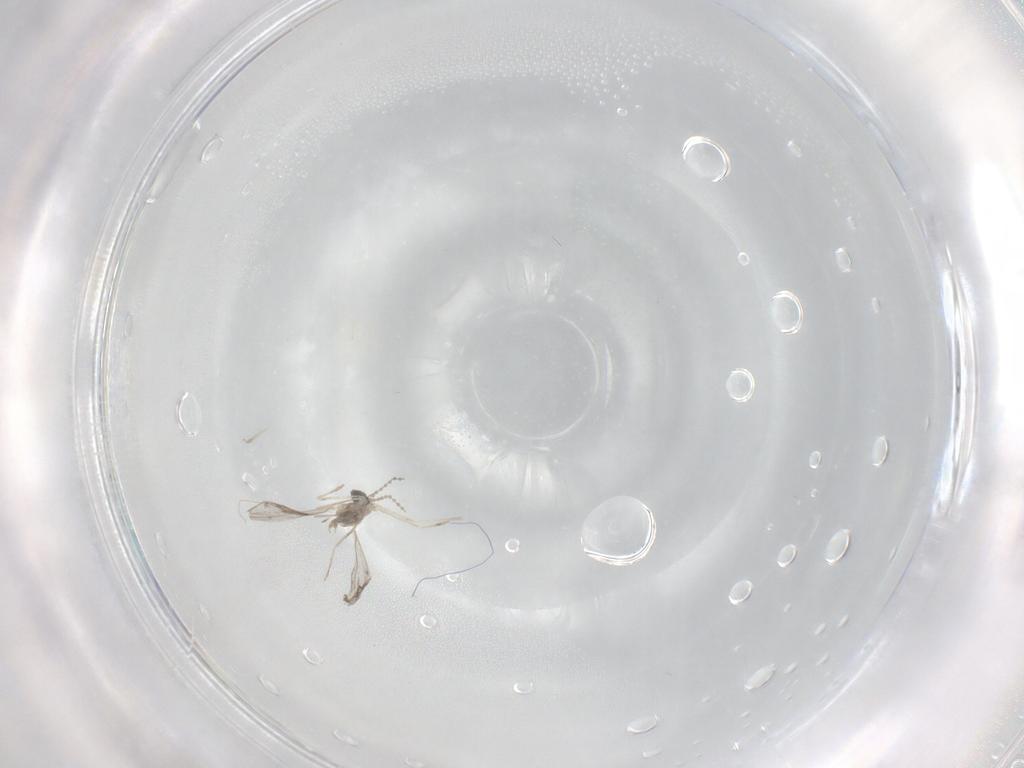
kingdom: Animalia
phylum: Arthropoda
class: Insecta
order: Diptera
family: Cecidomyiidae
